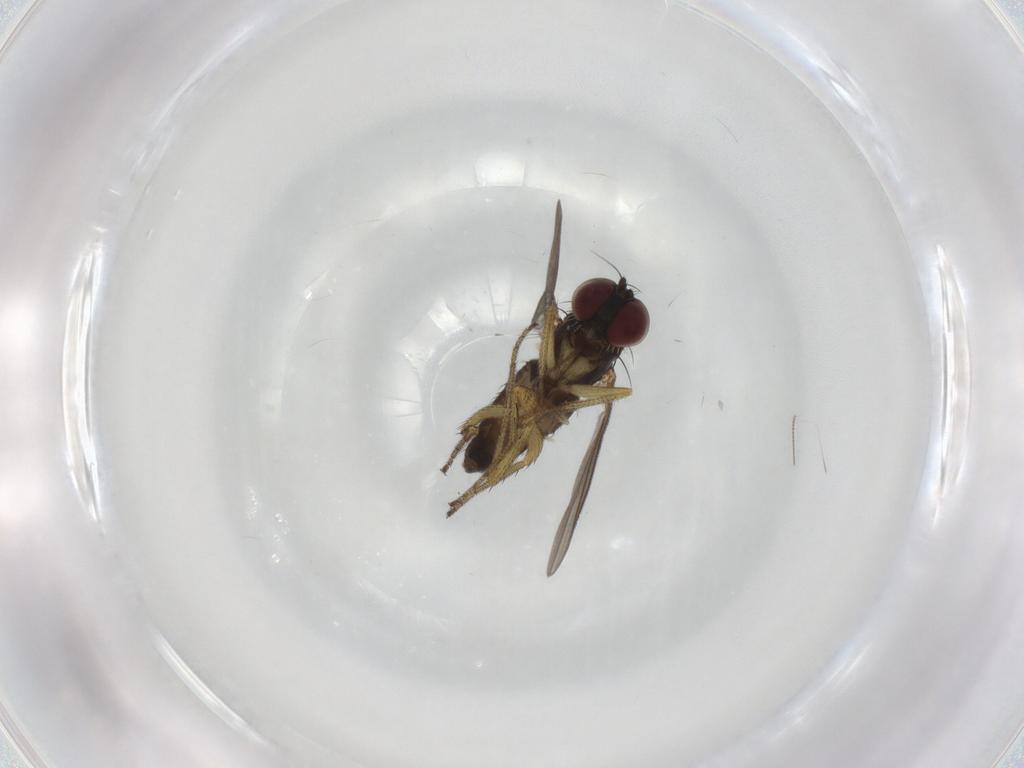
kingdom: Animalia
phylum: Arthropoda
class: Insecta
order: Diptera
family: Chironomidae
